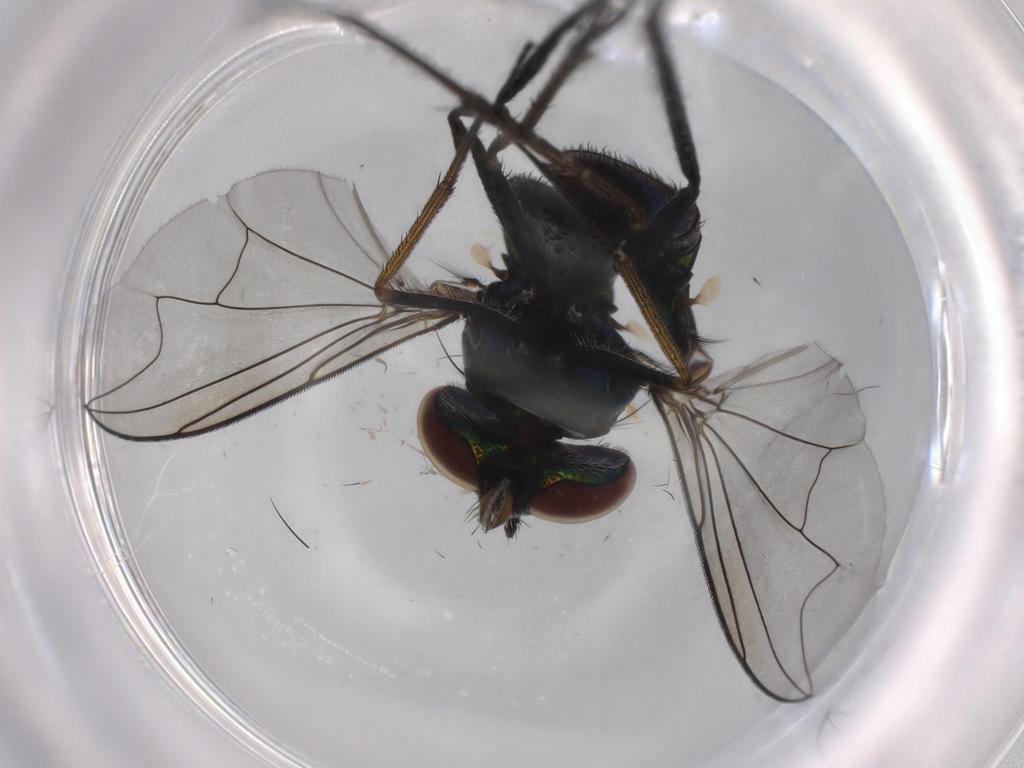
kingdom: Animalia
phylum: Arthropoda
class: Insecta
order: Diptera
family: Dolichopodidae
